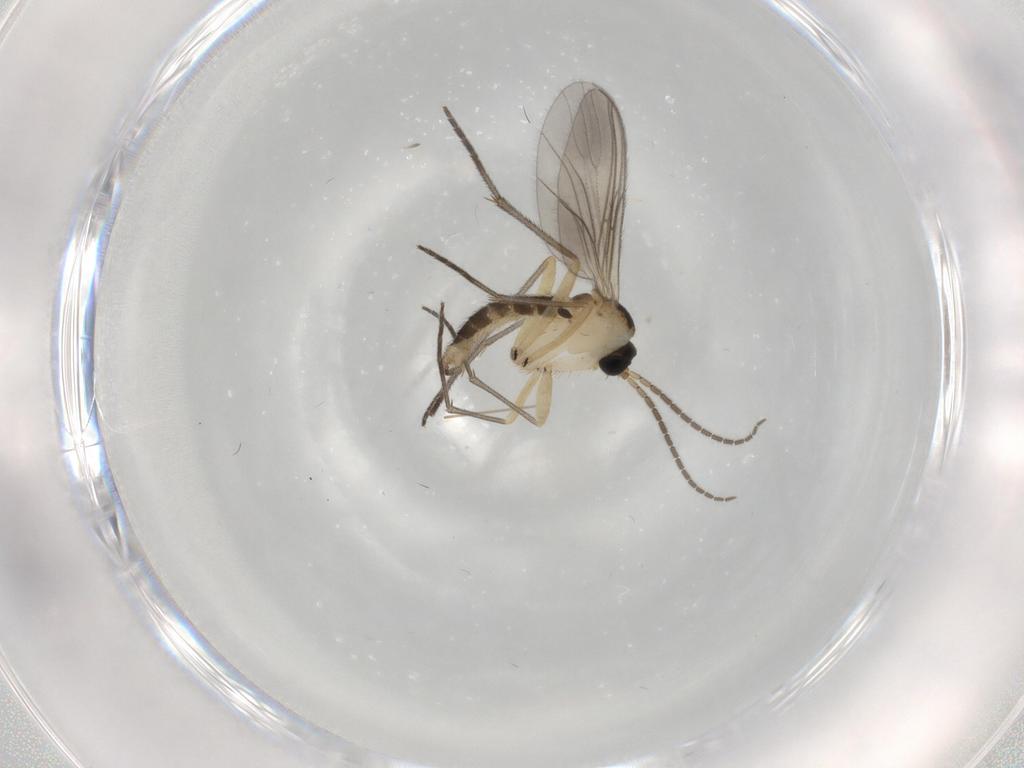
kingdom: Animalia
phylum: Arthropoda
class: Insecta
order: Diptera
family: Sciaridae
